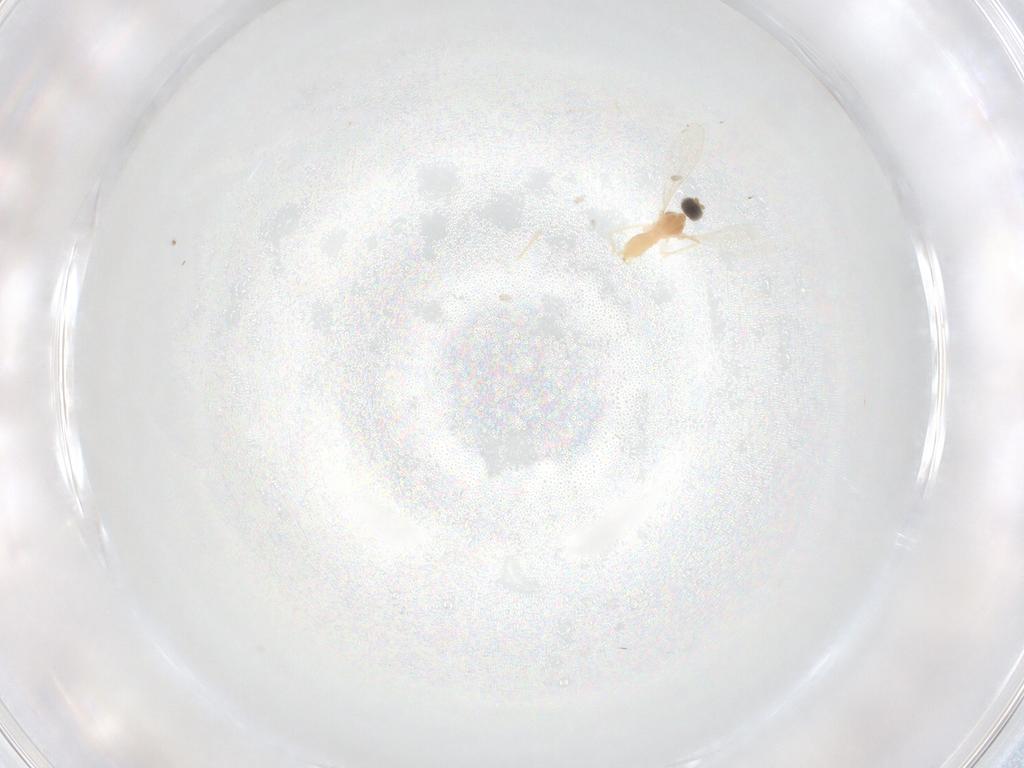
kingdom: Animalia
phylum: Arthropoda
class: Insecta
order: Diptera
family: Cecidomyiidae
